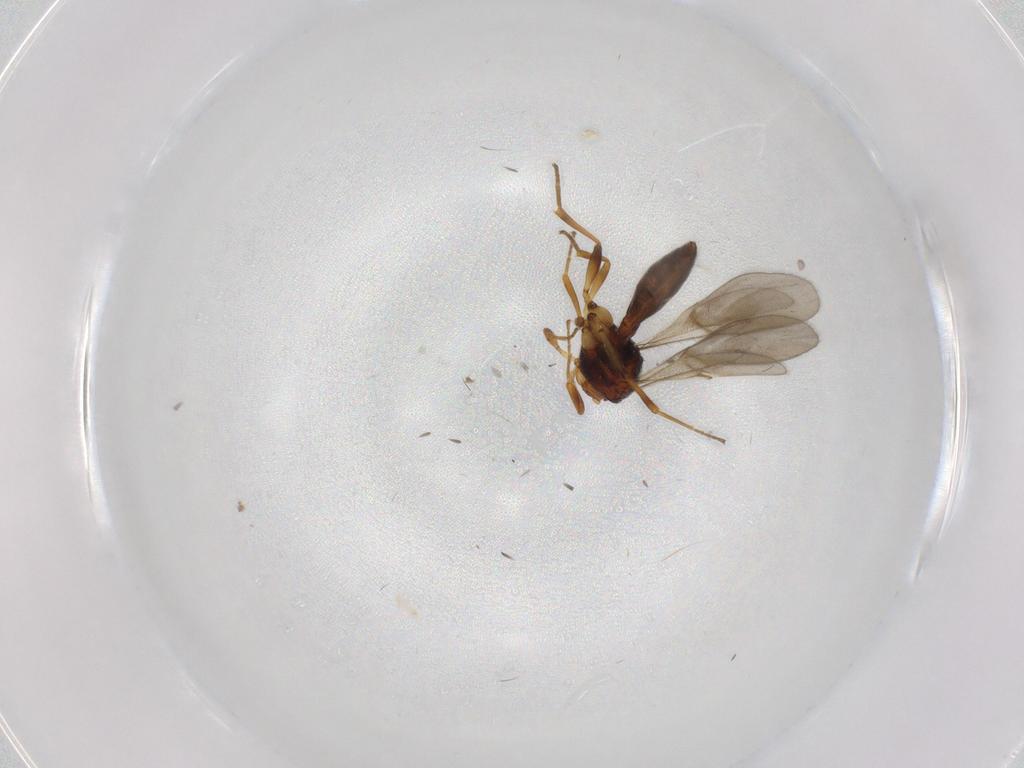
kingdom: Animalia
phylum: Arthropoda
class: Insecta
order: Hymenoptera
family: Scelionidae
